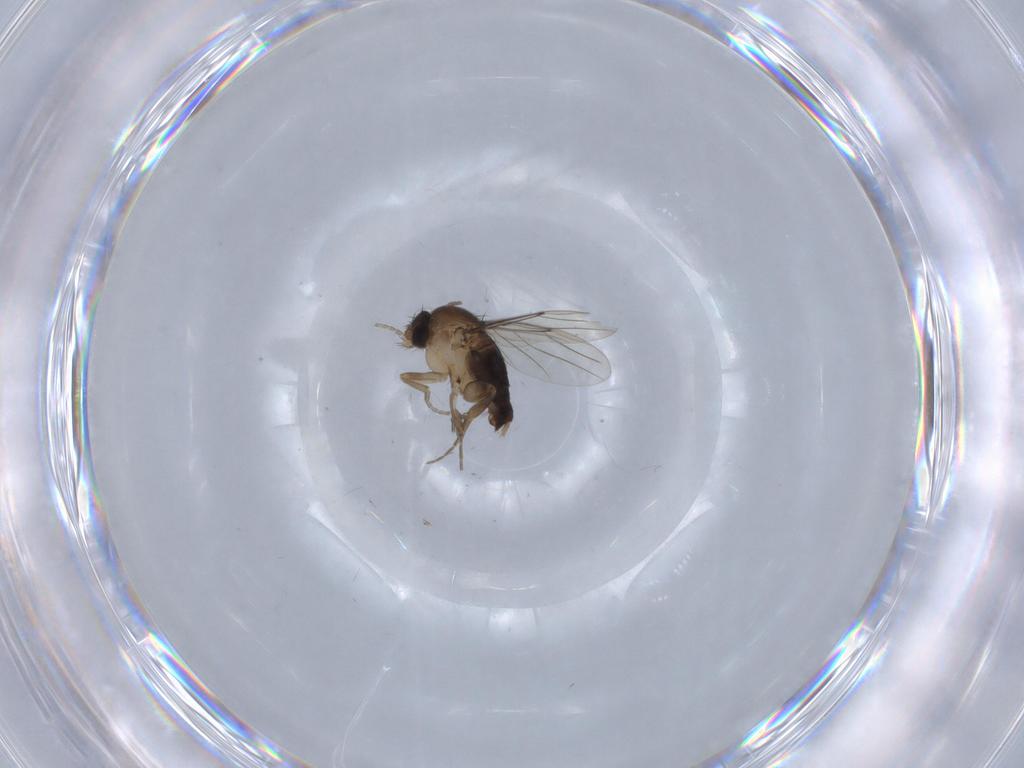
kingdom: Animalia
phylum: Arthropoda
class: Insecta
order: Diptera
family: Phoridae
